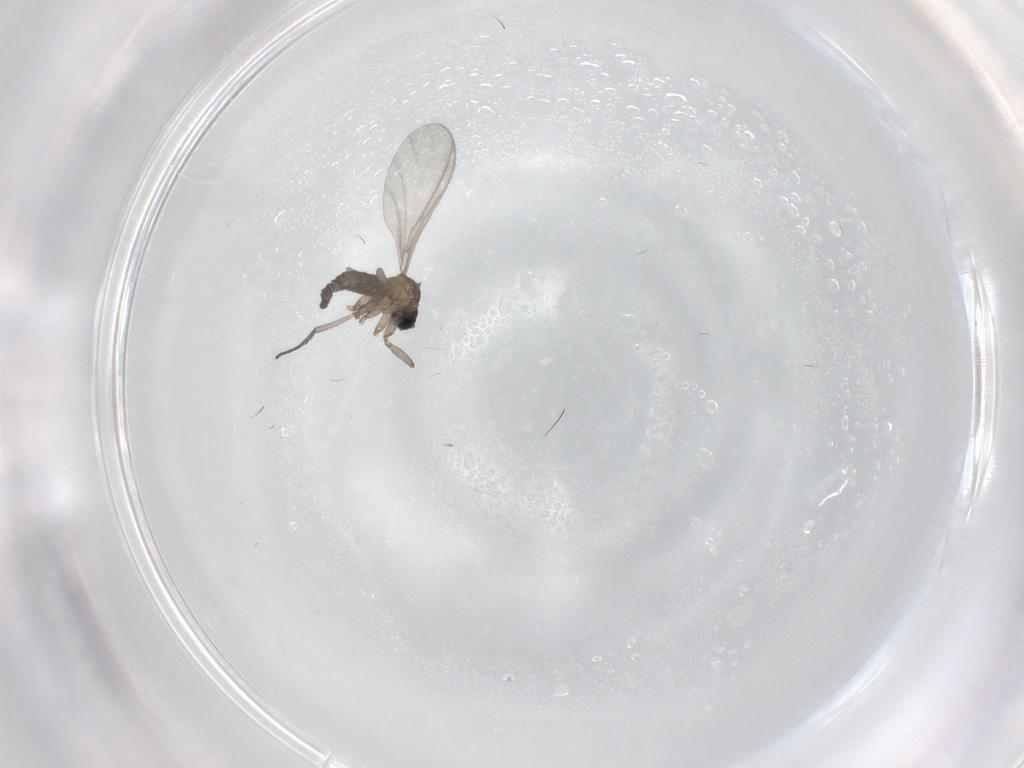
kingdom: Animalia
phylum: Arthropoda
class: Insecta
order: Diptera
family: Sciaridae
